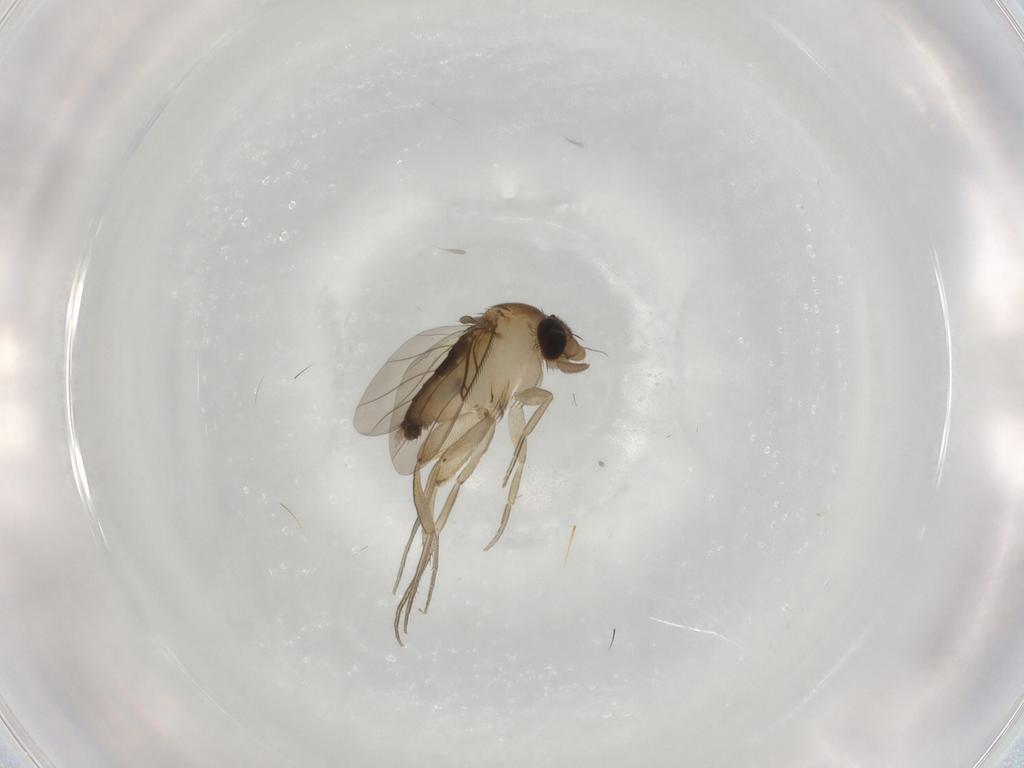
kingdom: Animalia
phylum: Arthropoda
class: Insecta
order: Diptera
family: Phoridae
